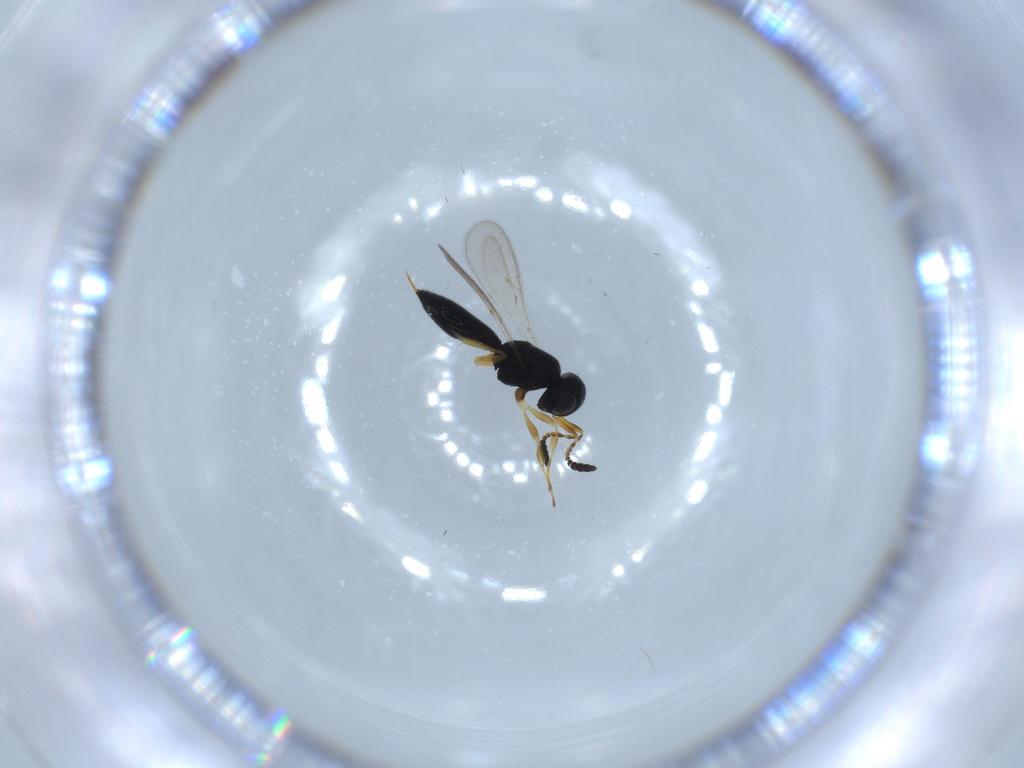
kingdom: Animalia
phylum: Arthropoda
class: Insecta
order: Hymenoptera
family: Scelionidae
